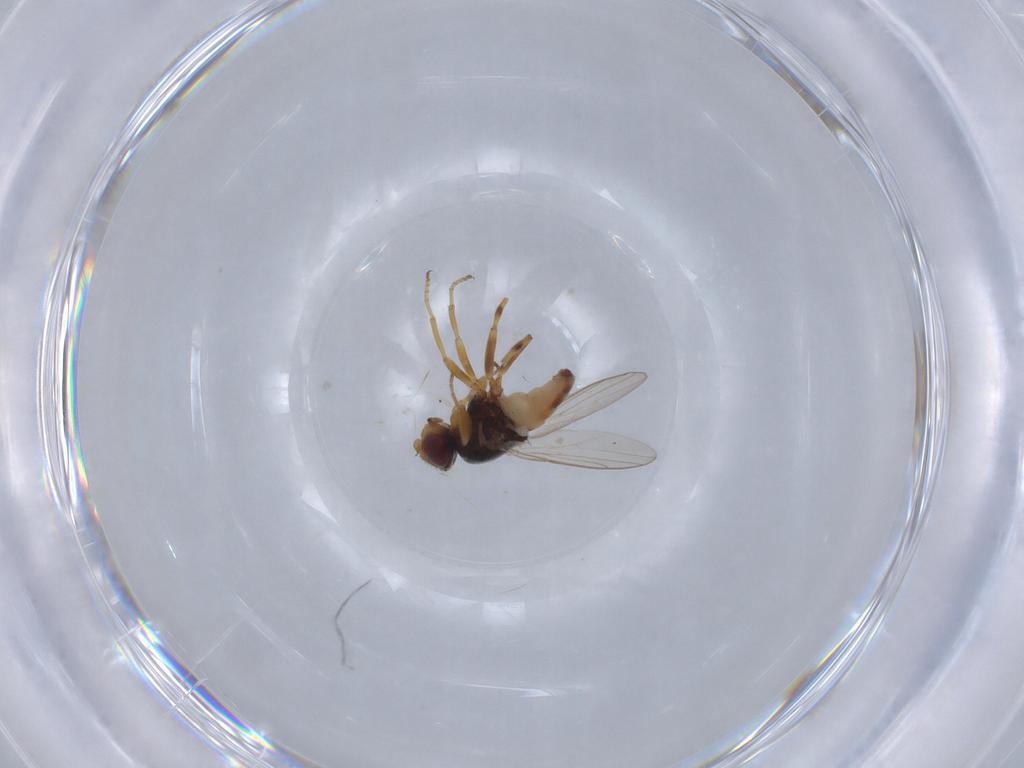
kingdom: Animalia
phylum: Arthropoda
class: Insecta
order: Diptera
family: Chloropidae
